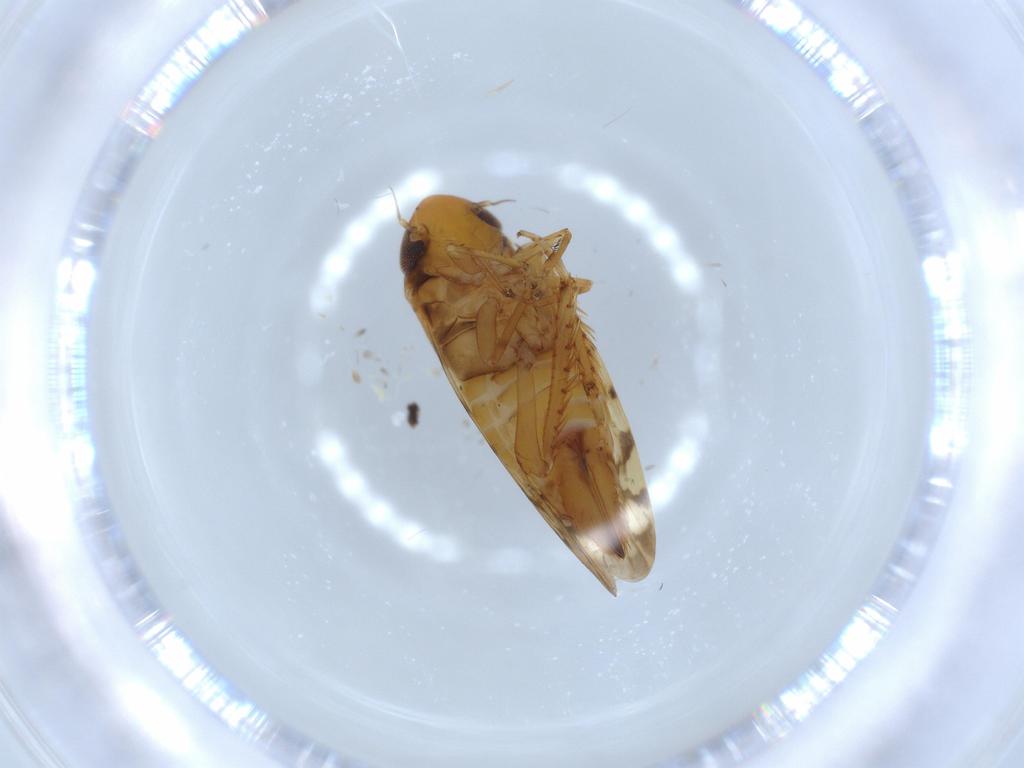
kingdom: Animalia
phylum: Arthropoda
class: Insecta
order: Hemiptera
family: Cicadellidae
